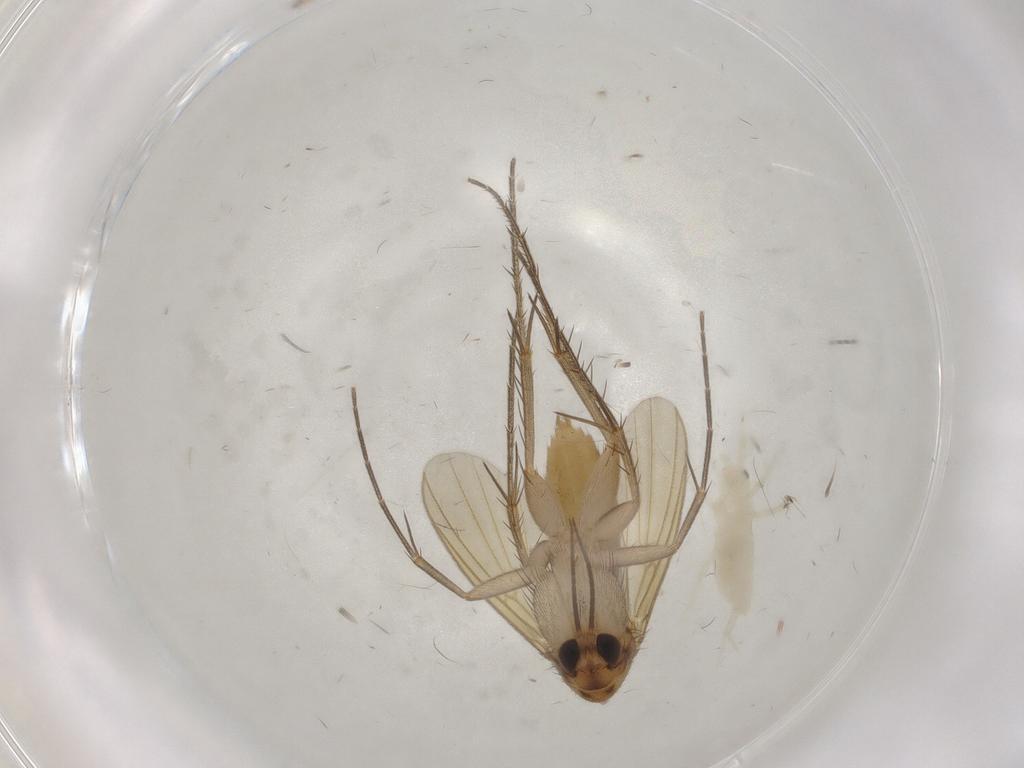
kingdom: Animalia
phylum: Arthropoda
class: Insecta
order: Diptera
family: Mycetophilidae
